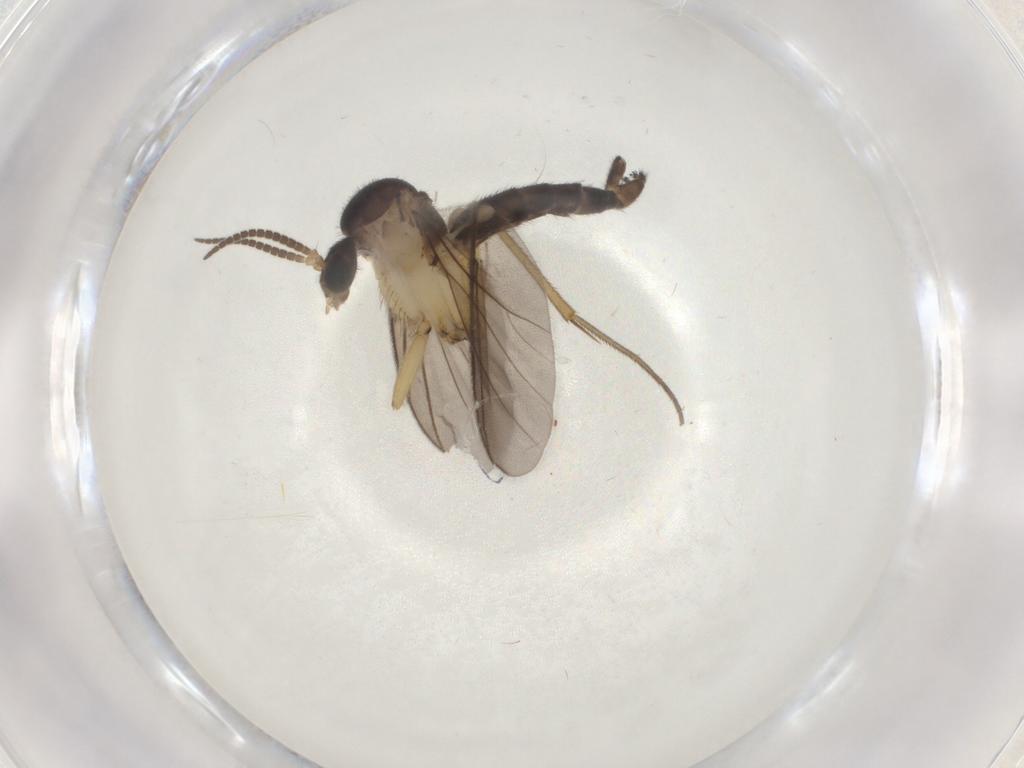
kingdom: Animalia
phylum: Arthropoda
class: Insecta
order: Diptera
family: Mycetophilidae
